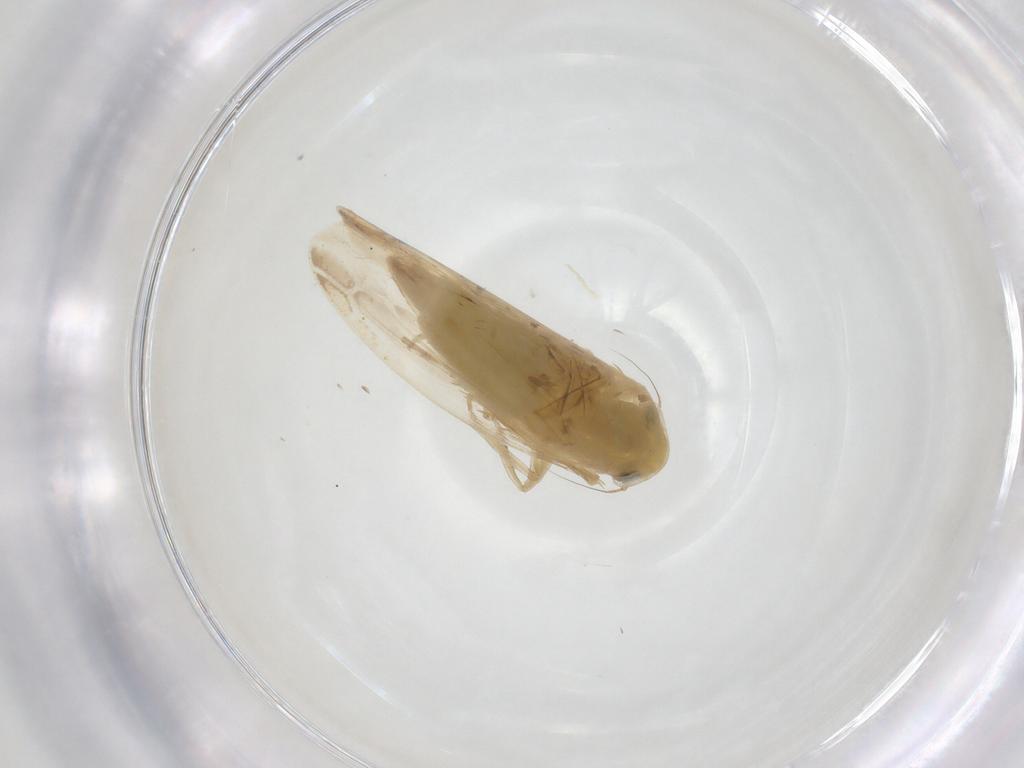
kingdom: Animalia
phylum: Arthropoda
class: Insecta
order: Hemiptera
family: Cicadellidae
